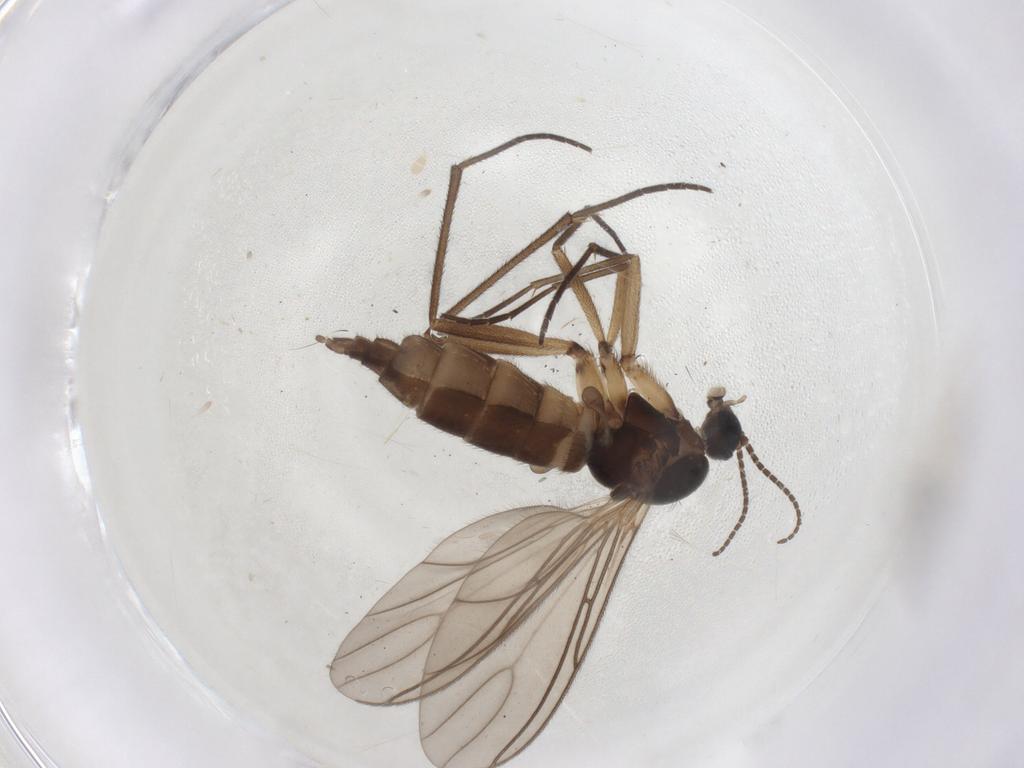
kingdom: Animalia
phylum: Arthropoda
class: Insecta
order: Diptera
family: Sciaridae
